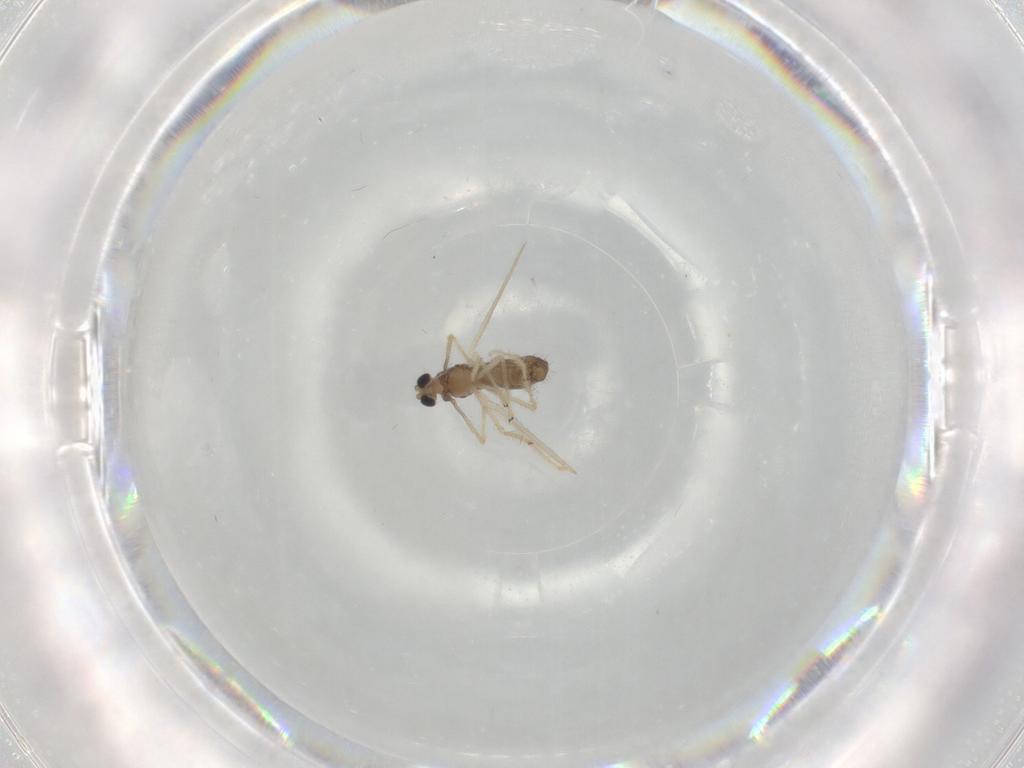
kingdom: Animalia
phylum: Arthropoda
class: Insecta
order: Diptera
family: Chironomidae
